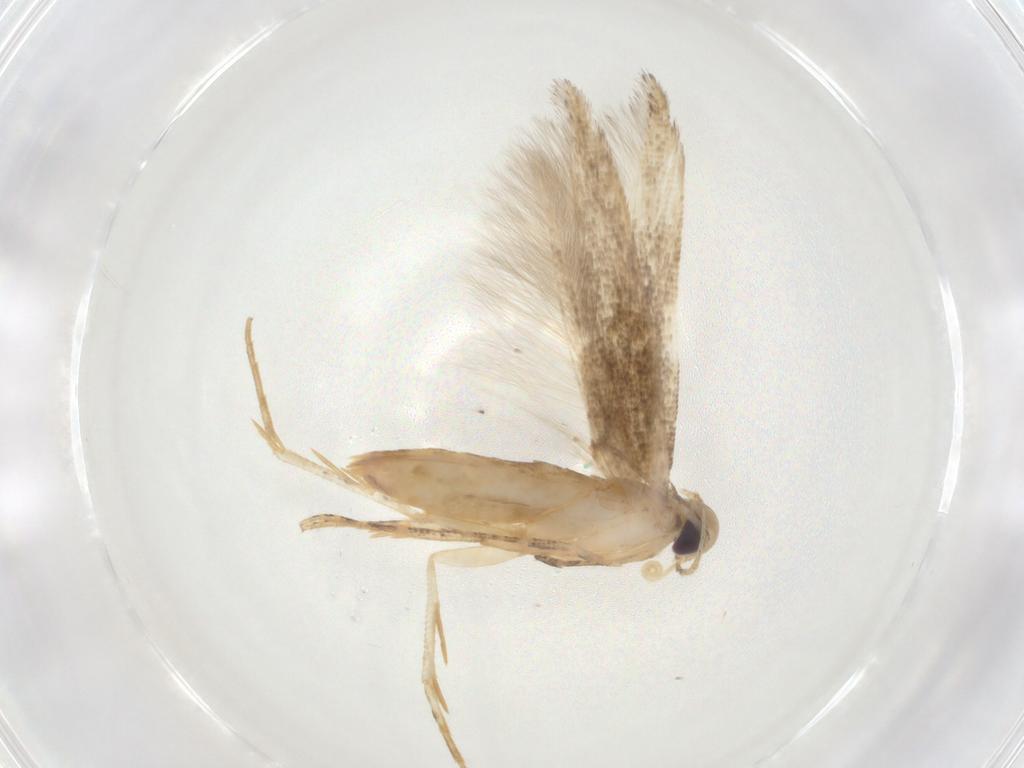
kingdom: Animalia
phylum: Arthropoda
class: Insecta
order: Lepidoptera
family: Cosmopterigidae
